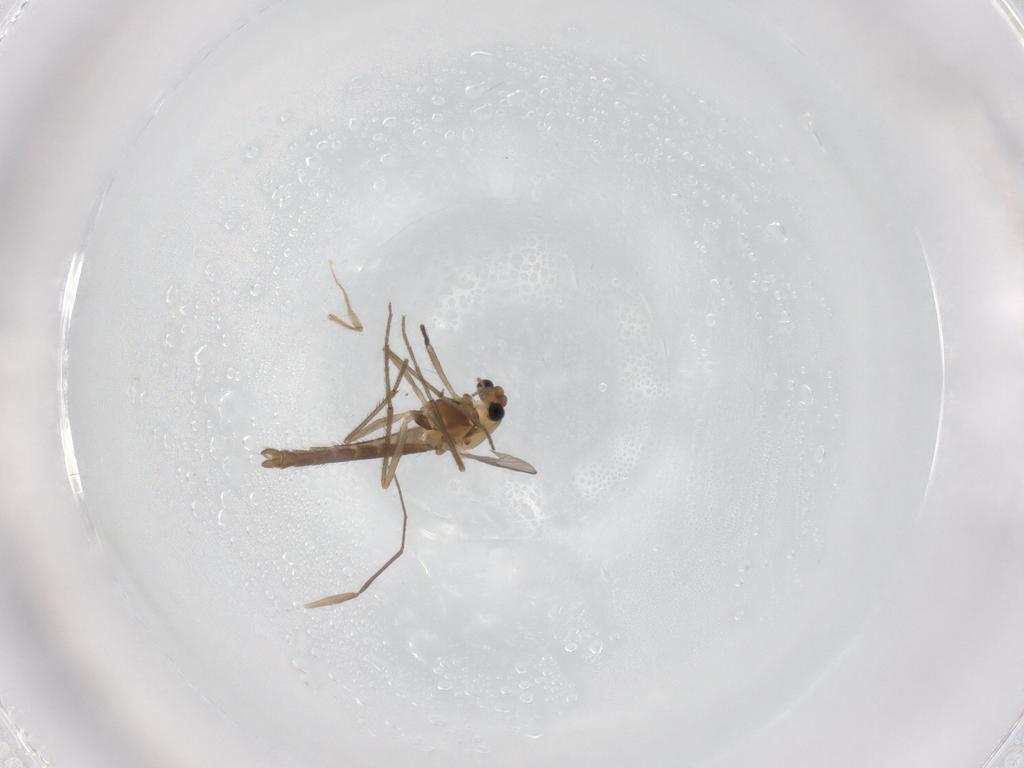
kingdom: Animalia
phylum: Arthropoda
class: Insecta
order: Diptera
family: Chironomidae
